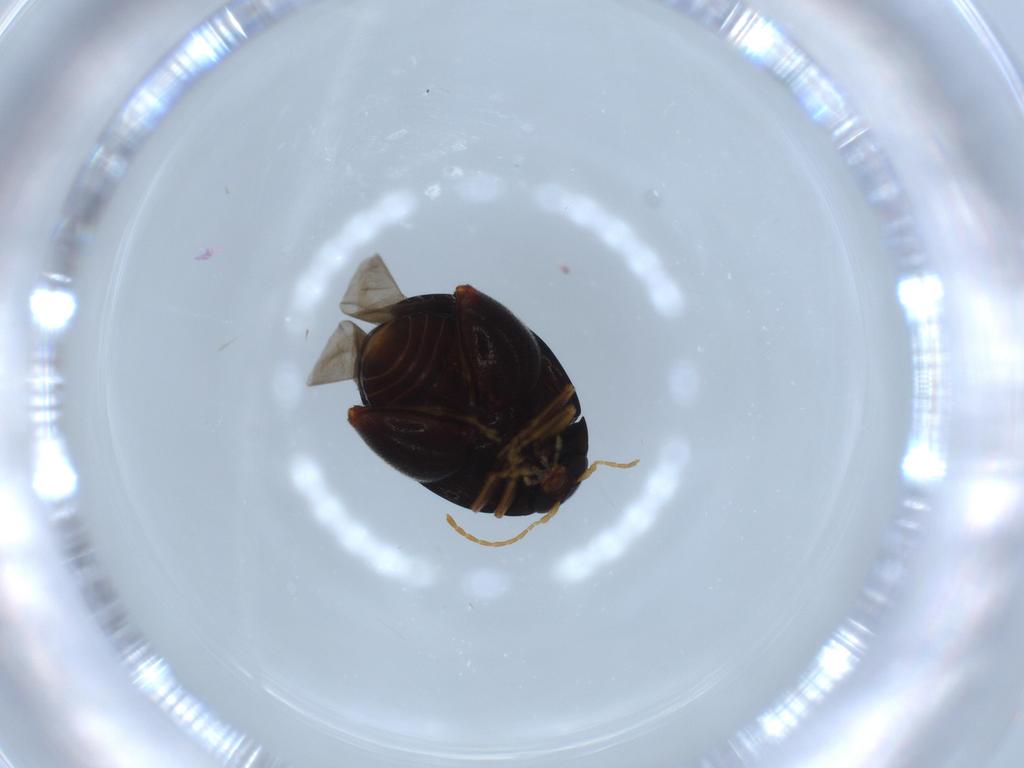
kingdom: Animalia
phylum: Arthropoda
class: Insecta
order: Coleoptera
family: Chrysomelidae
